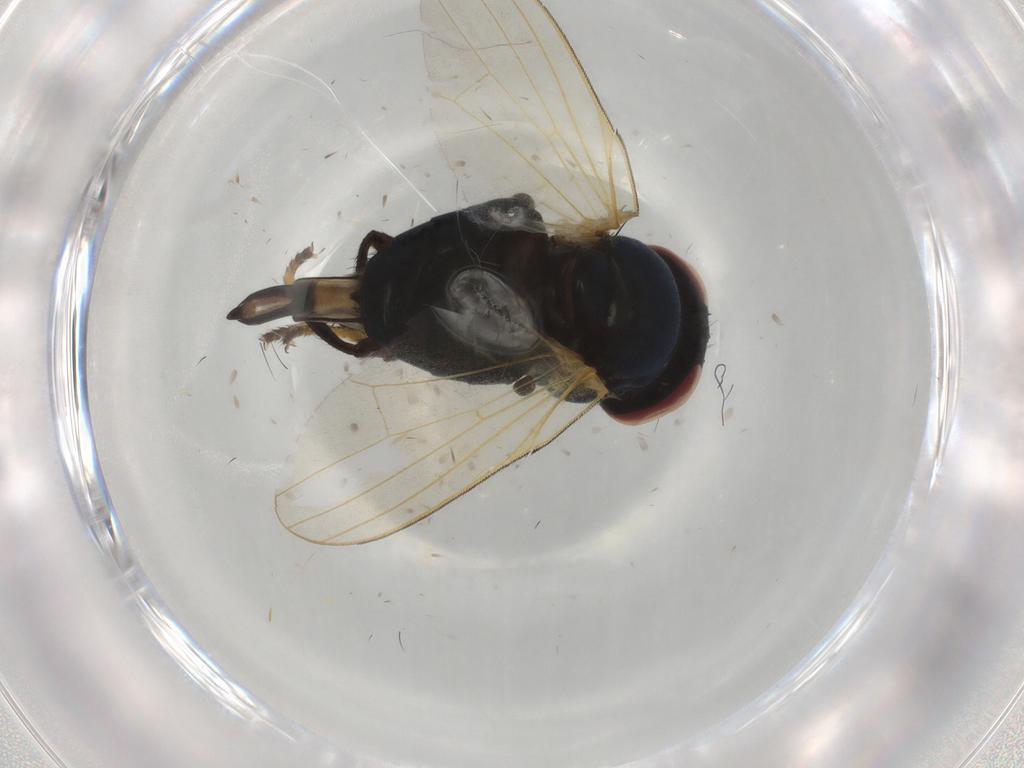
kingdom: Animalia
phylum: Arthropoda
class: Insecta
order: Diptera
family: Lonchaeidae
